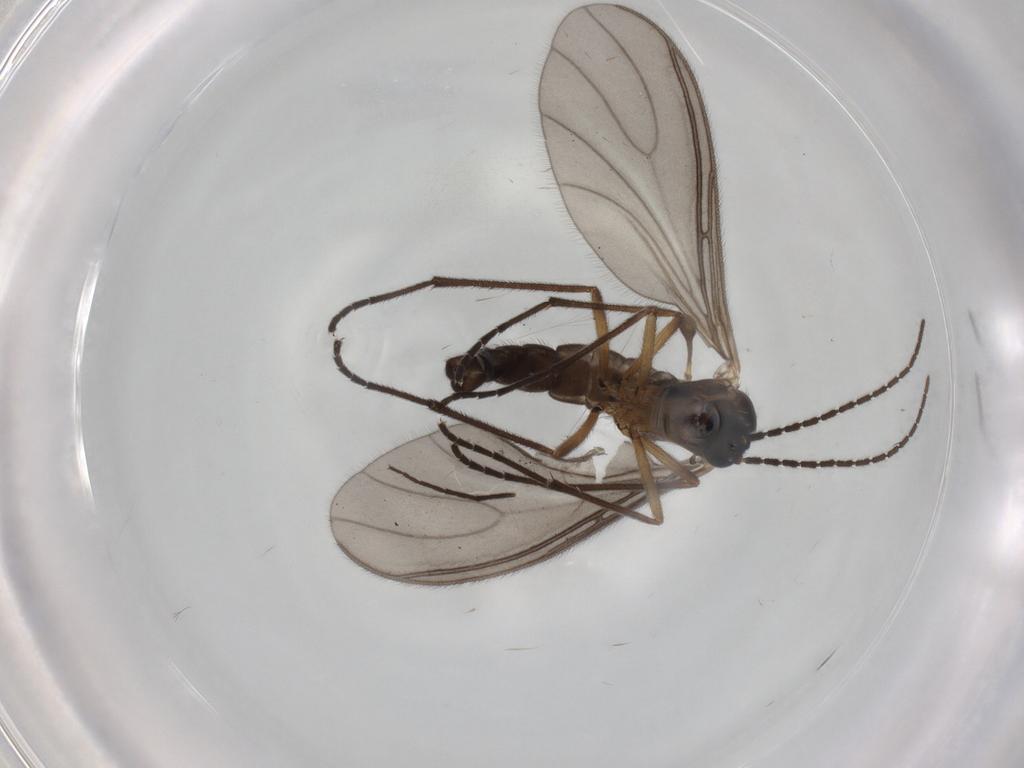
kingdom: Animalia
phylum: Arthropoda
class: Insecta
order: Diptera
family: Sciaridae
